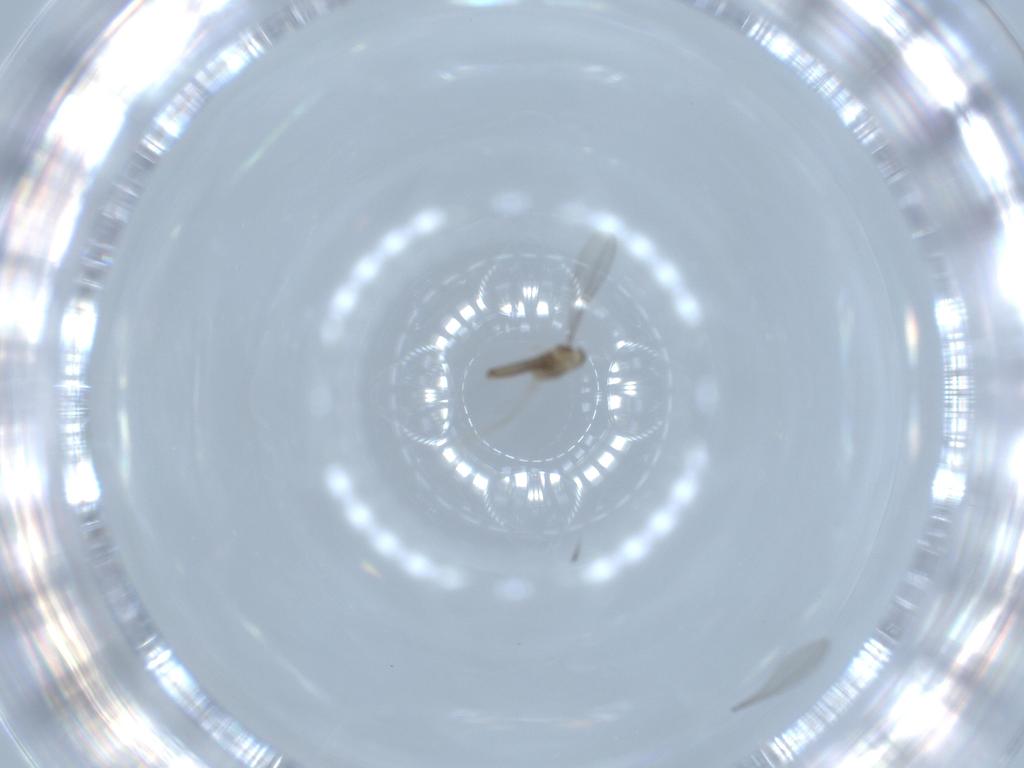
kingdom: Animalia
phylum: Arthropoda
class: Insecta
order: Diptera
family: Cecidomyiidae
